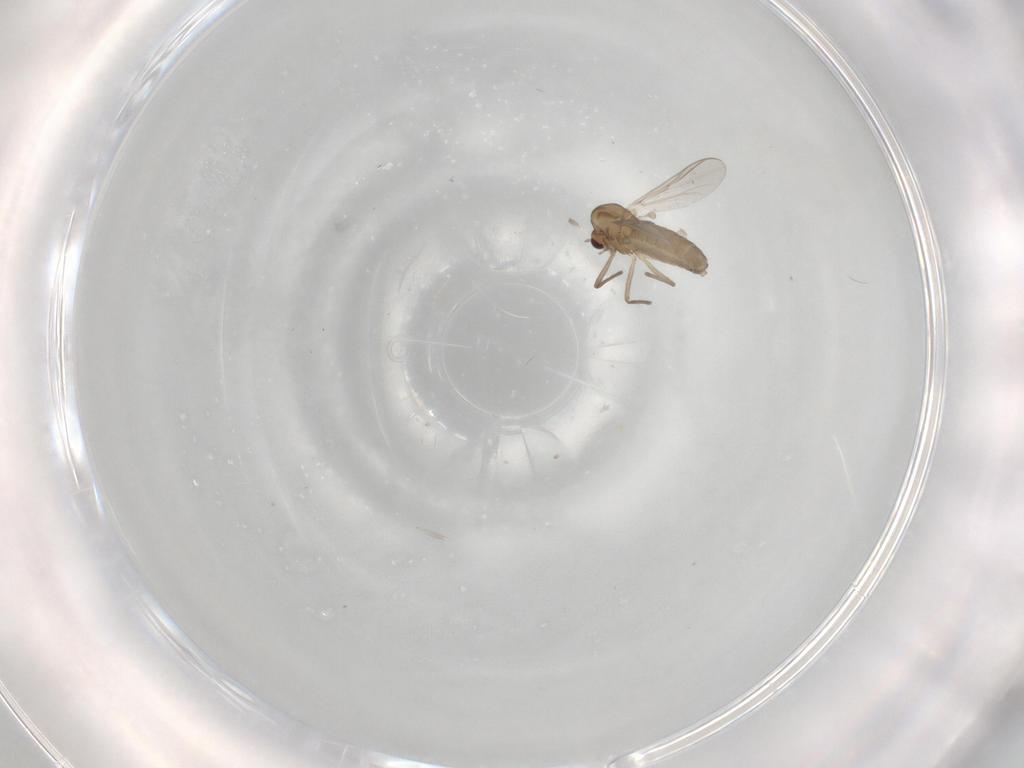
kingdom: Animalia
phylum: Arthropoda
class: Insecta
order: Diptera
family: Chironomidae
